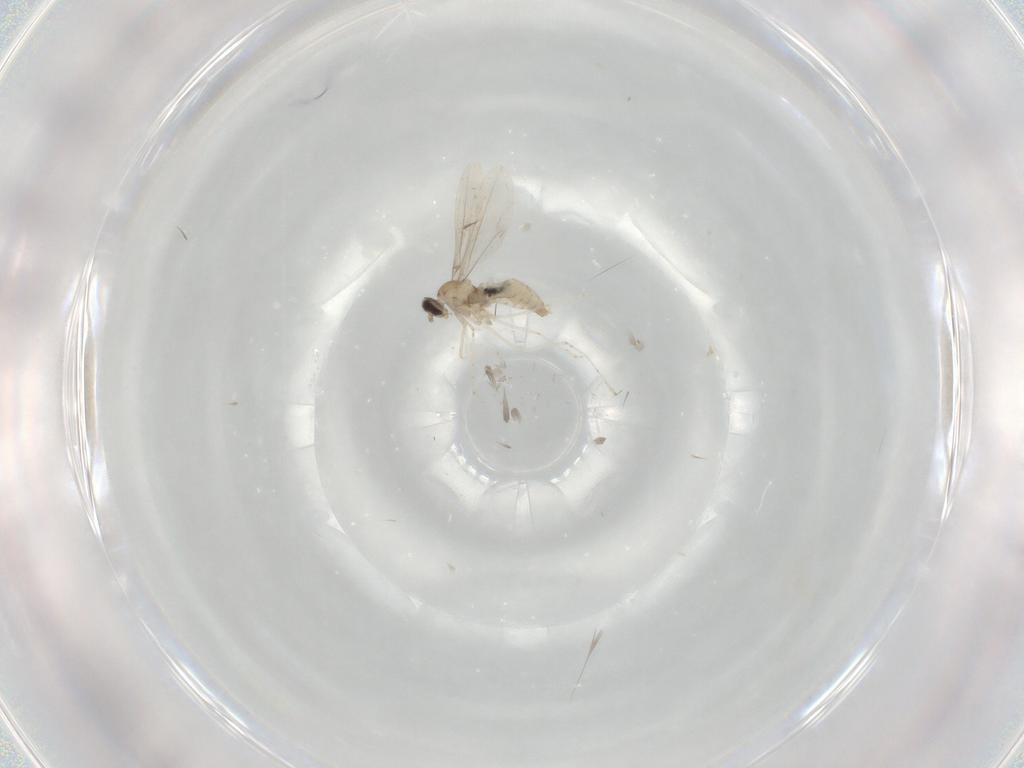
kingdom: Animalia
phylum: Arthropoda
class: Insecta
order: Diptera
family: Cecidomyiidae
